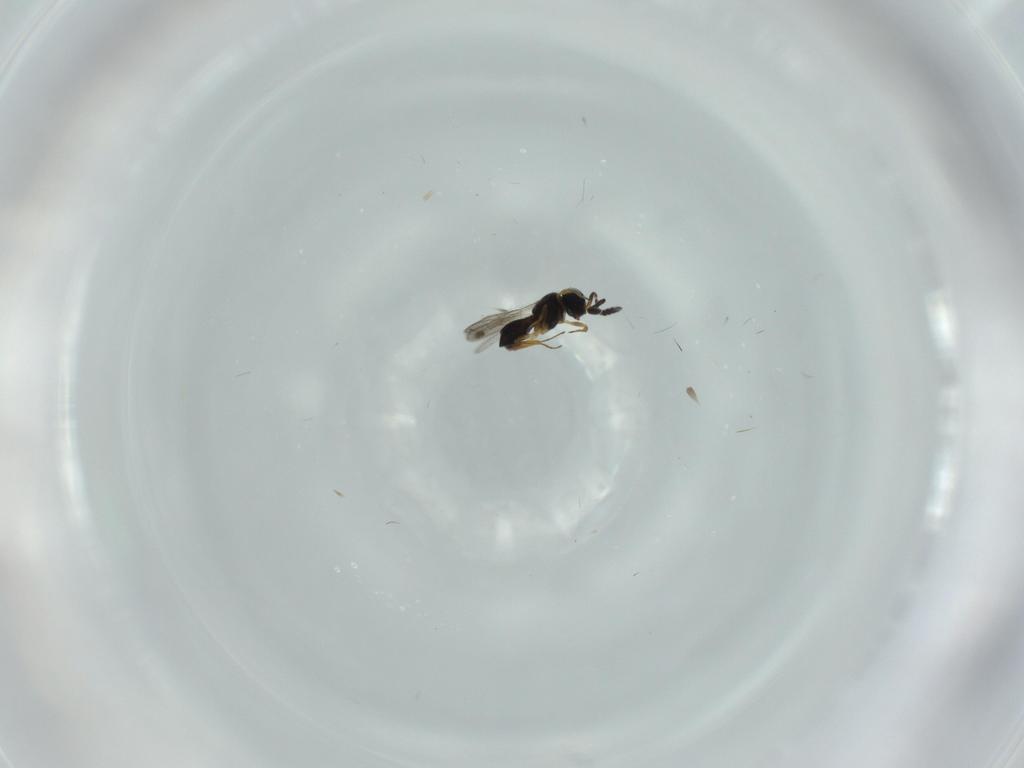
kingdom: Animalia
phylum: Arthropoda
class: Insecta
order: Hymenoptera
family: Scelionidae
